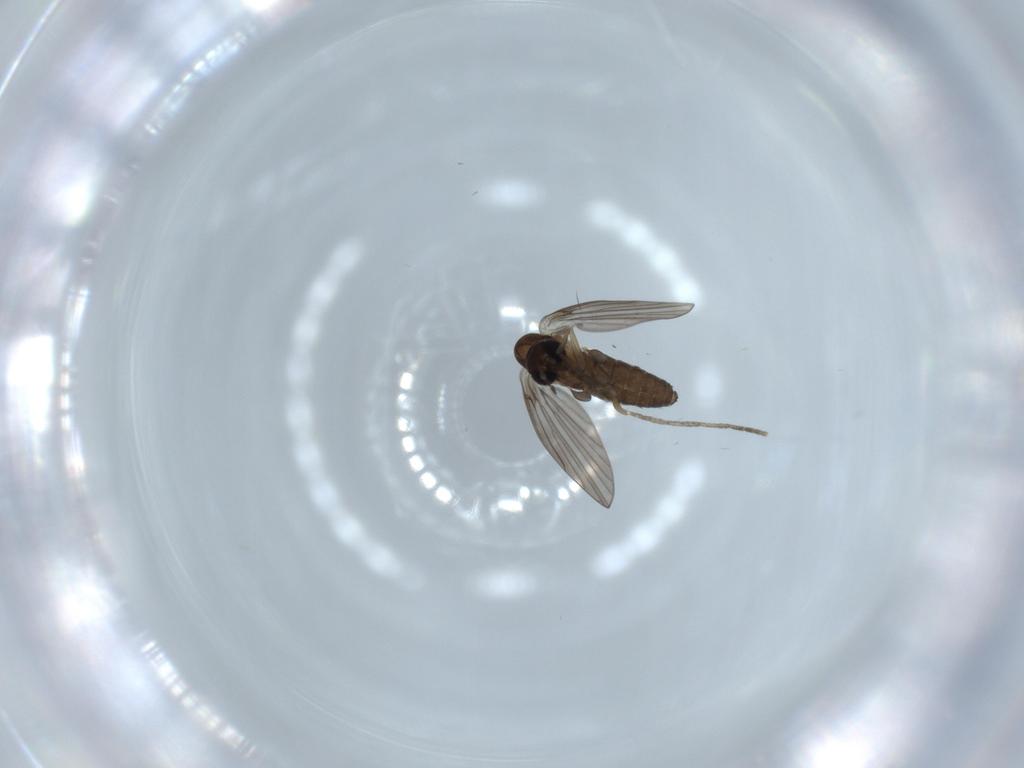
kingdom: Animalia
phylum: Arthropoda
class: Insecta
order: Diptera
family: Psychodidae
